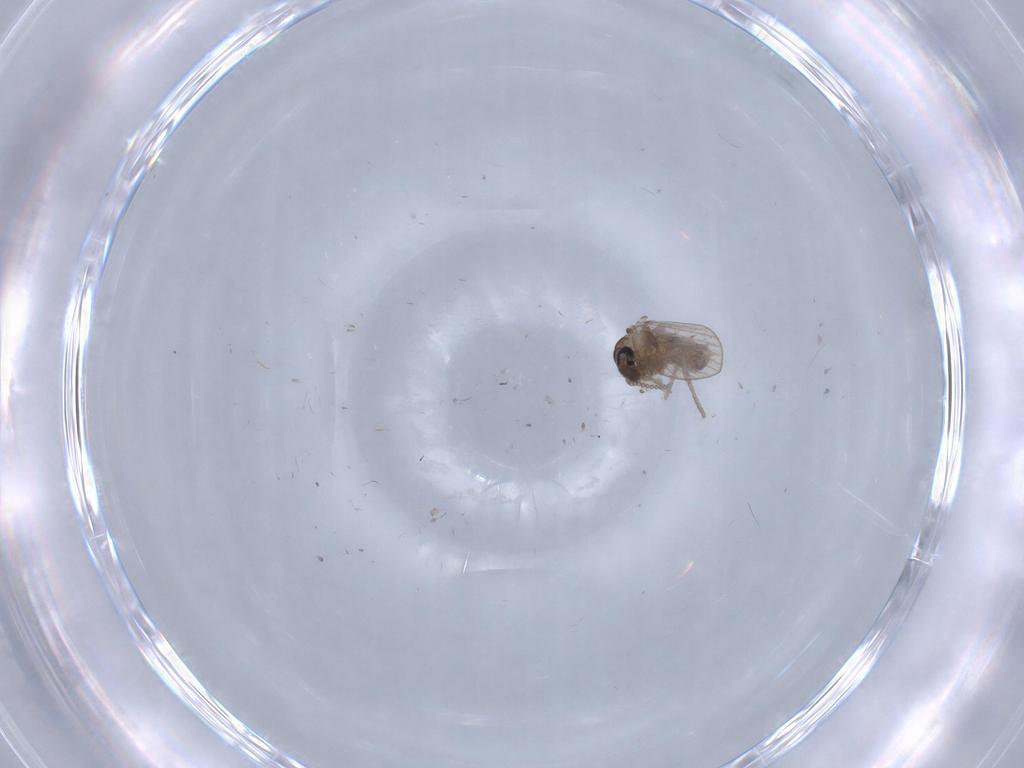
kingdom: Animalia
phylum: Arthropoda
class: Insecta
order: Diptera
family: Psychodidae
